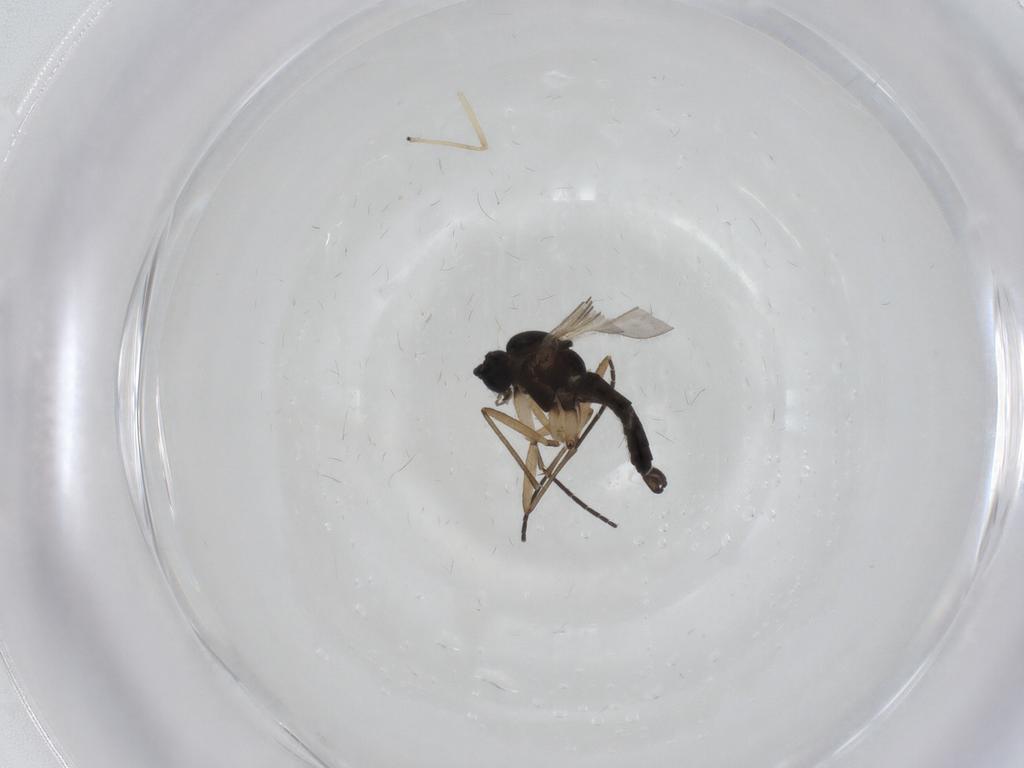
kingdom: Animalia
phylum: Arthropoda
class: Insecta
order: Diptera
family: Sciaridae
